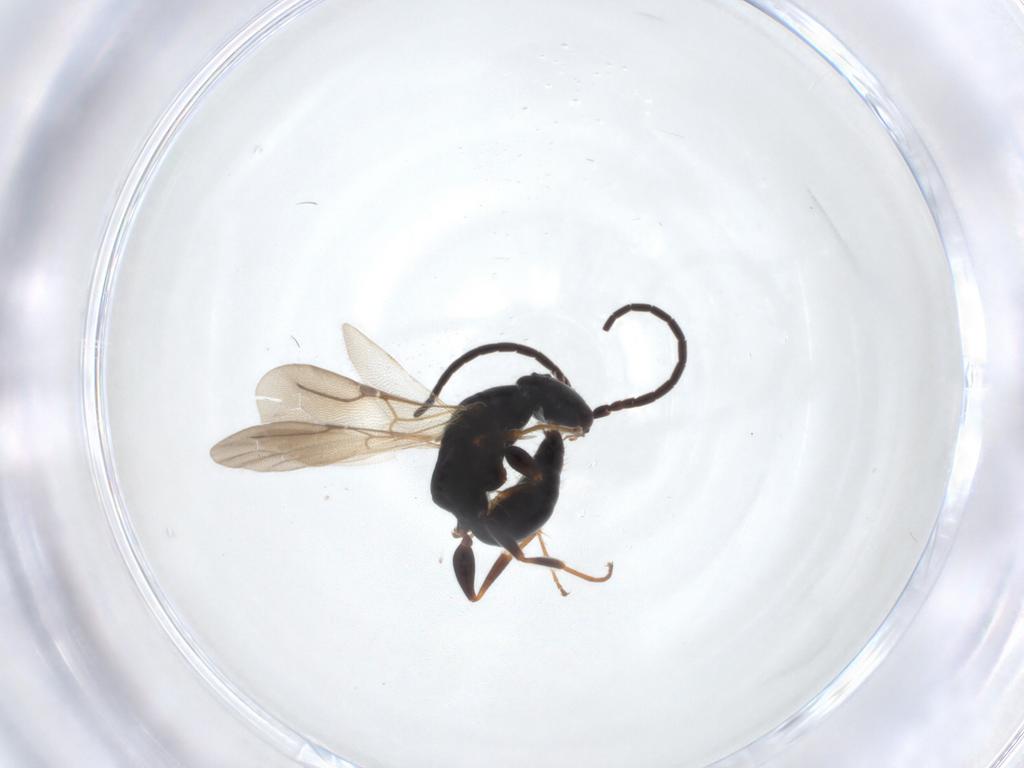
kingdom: Animalia
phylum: Arthropoda
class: Insecta
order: Hymenoptera
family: Bethylidae
